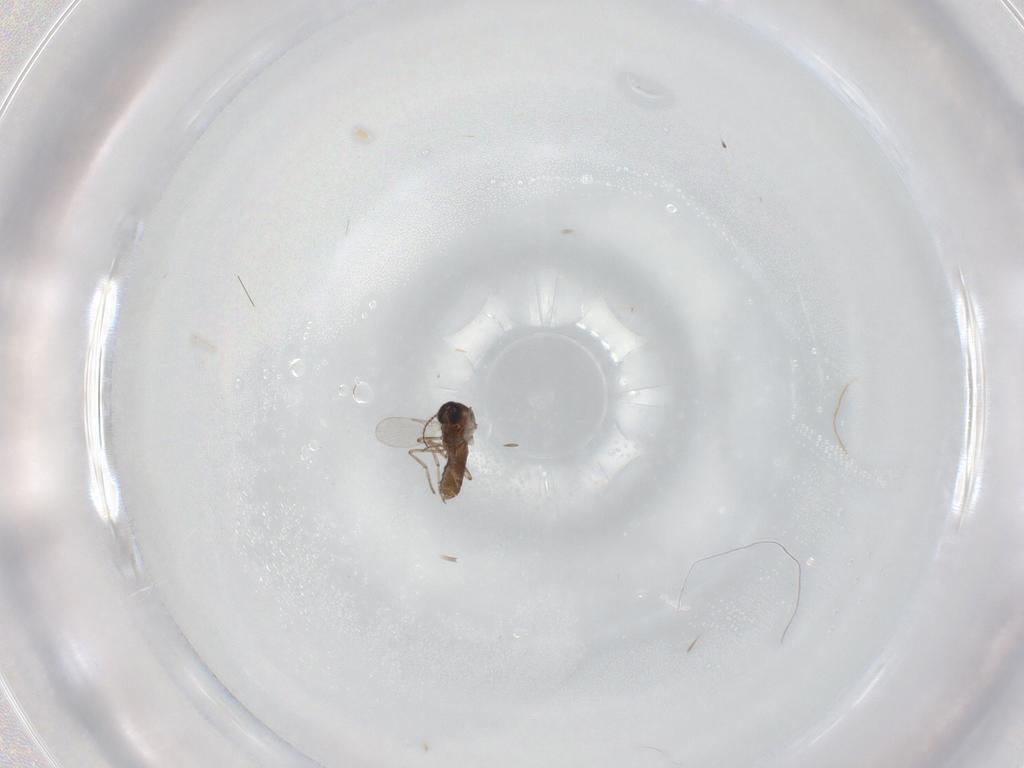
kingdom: Animalia
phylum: Arthropoda
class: Insecta
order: Diptera
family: Ceratopogonidae
